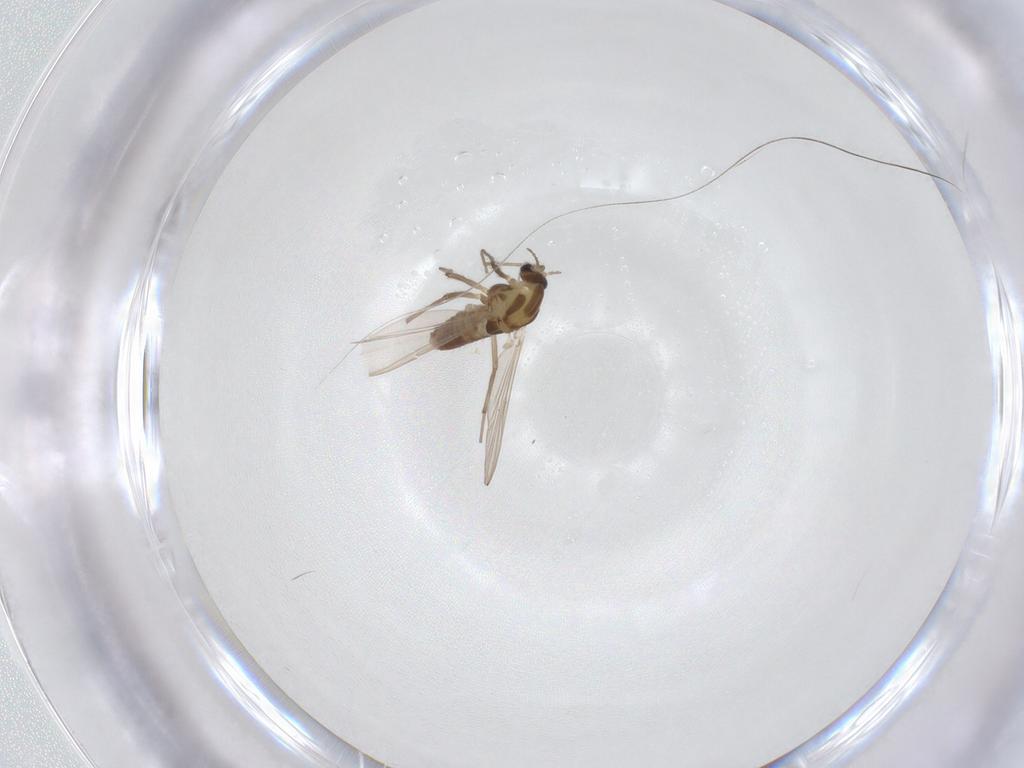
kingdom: Animalia
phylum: Arthropoda
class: Insecta
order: Diptera
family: Chironomidae
